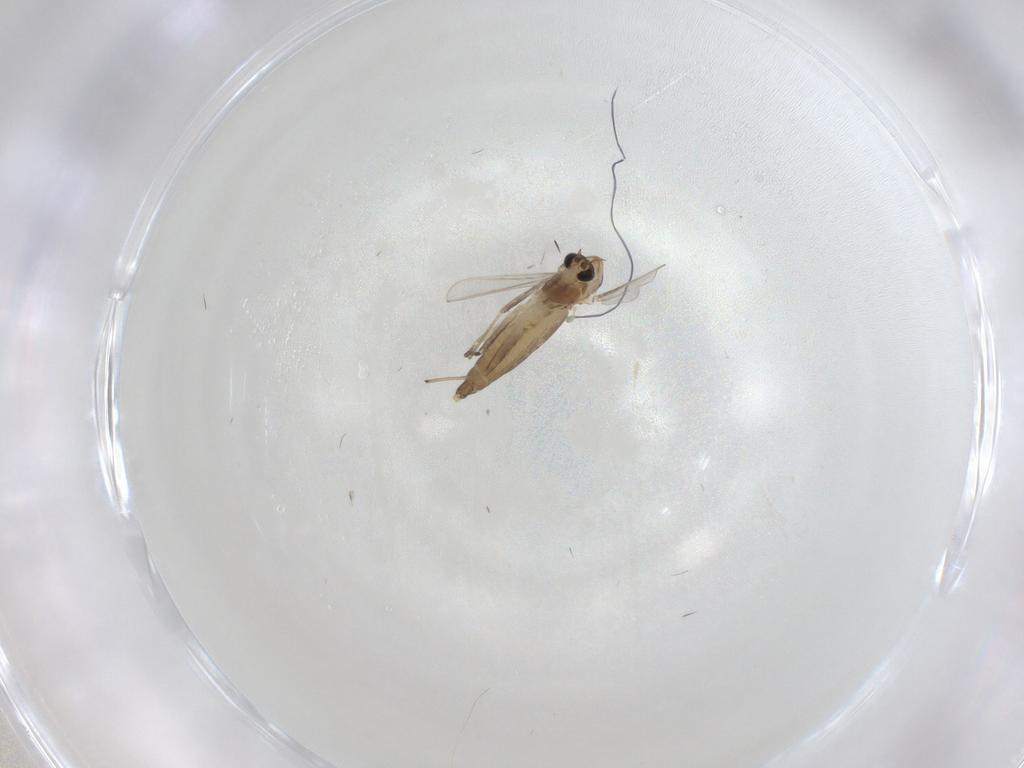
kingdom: Animalia
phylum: Arthropoda
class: Insecta
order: Diptera
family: Chironomidae
